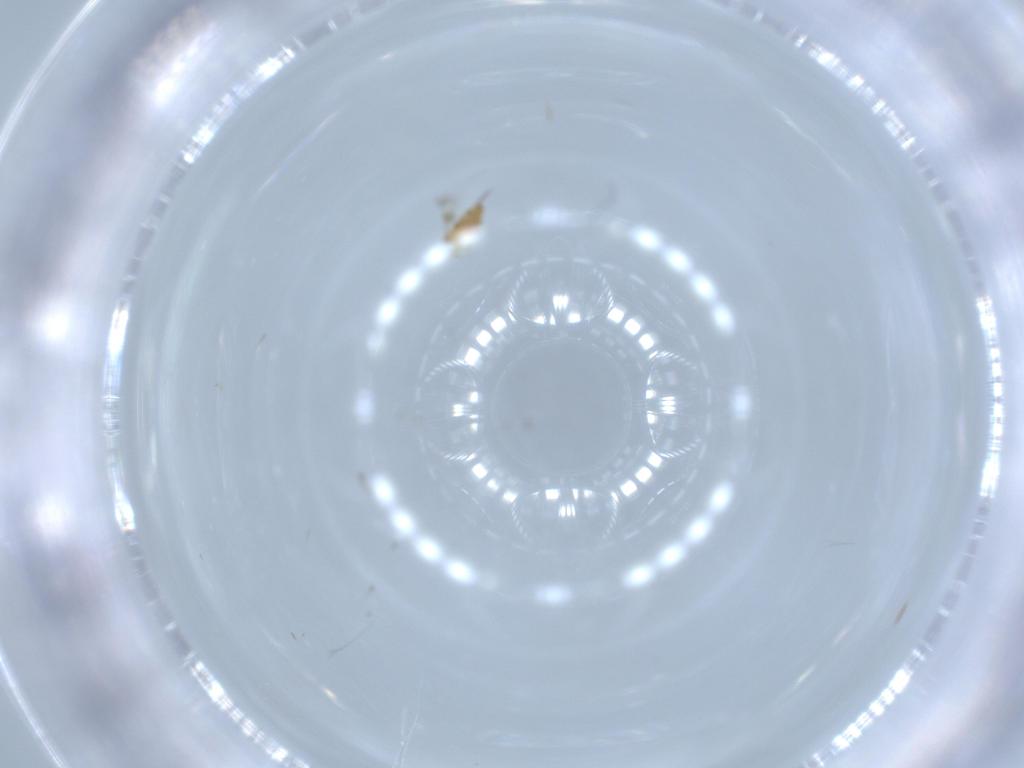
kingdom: Animalia
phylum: Arthropoda
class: Insecta
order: Hymenoptera
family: Signiphoridae
